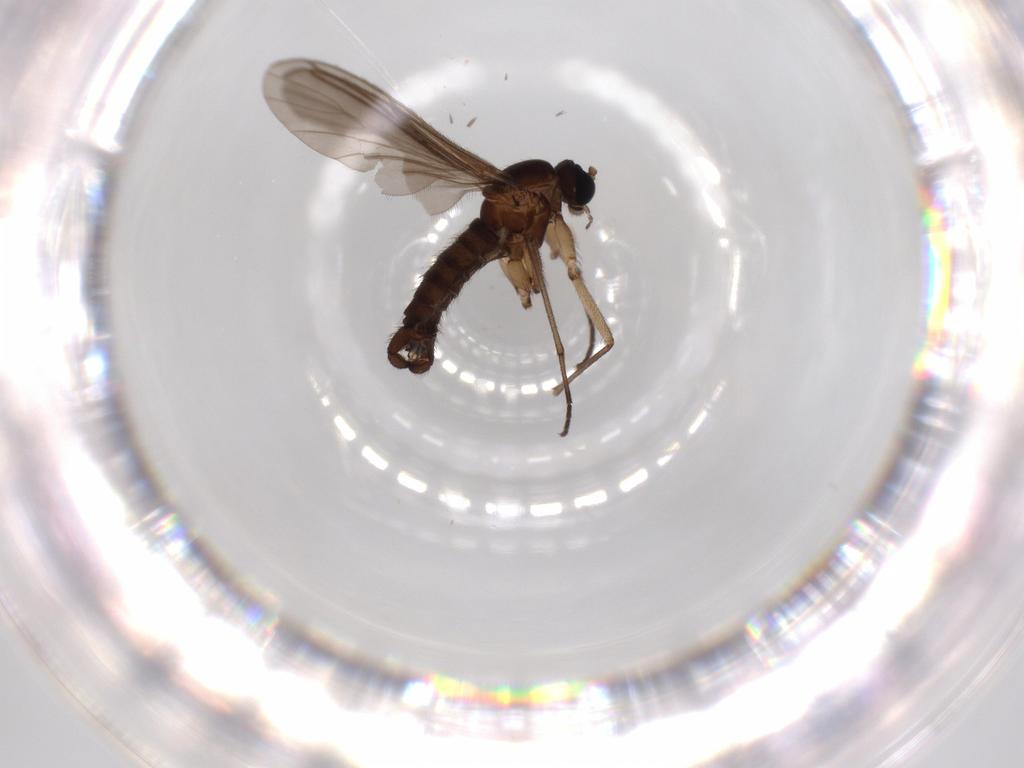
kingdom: Animalia
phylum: Arthropoda
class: Insecta
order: Diptera
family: Sciaridae
